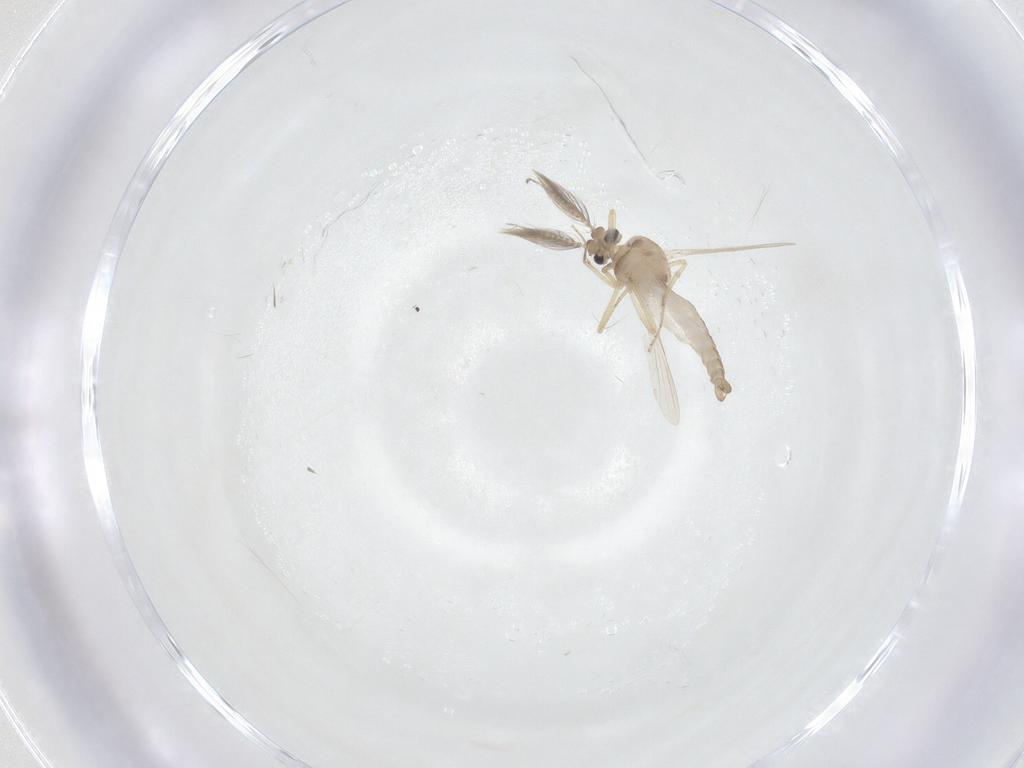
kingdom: Animalia
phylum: Arthropoda
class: Insecta
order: Diptera
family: Ceratopogonidae
